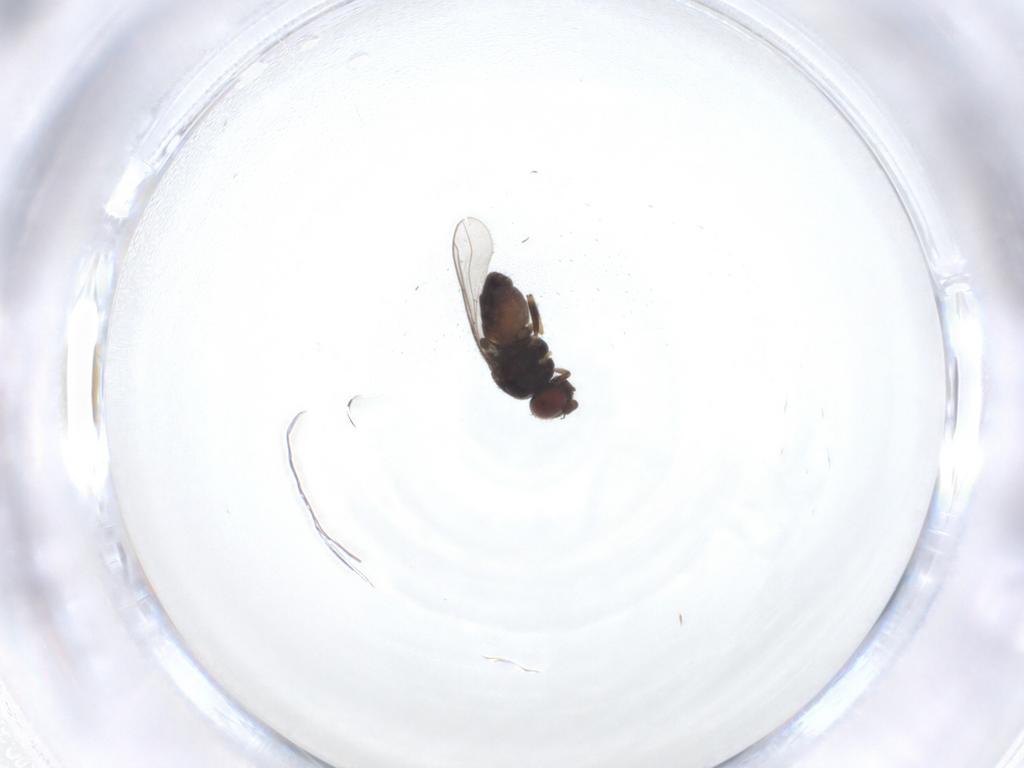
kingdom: Animalia
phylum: Arthropoda
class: Insecta
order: Diptera
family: Chloropidae
